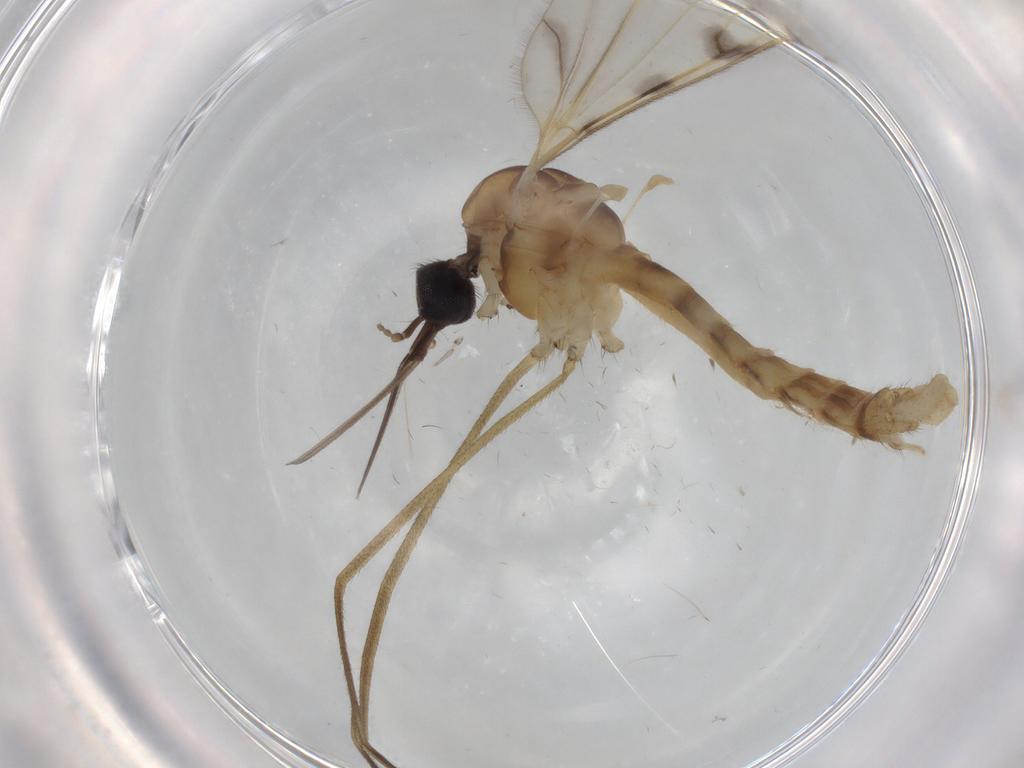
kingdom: Animalia
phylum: Arthropoda
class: Insecta
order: Diptera
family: Chironomidae
